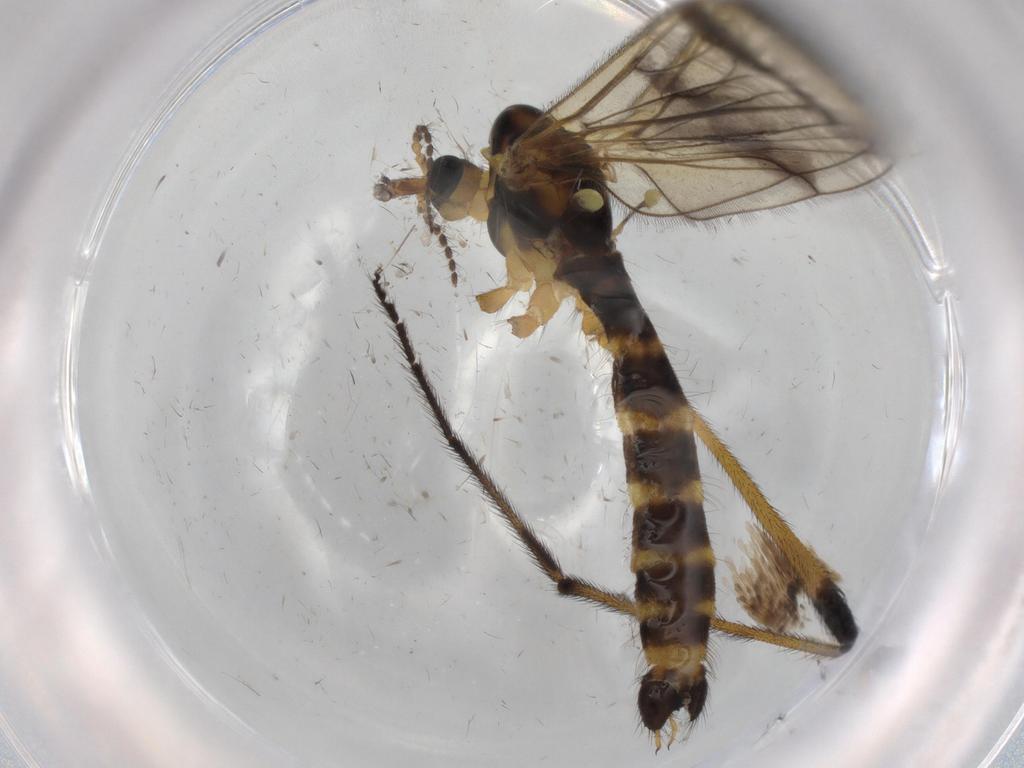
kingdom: Animalia
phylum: Arthropoda
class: Insecta
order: Diptera
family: Limoniidae
